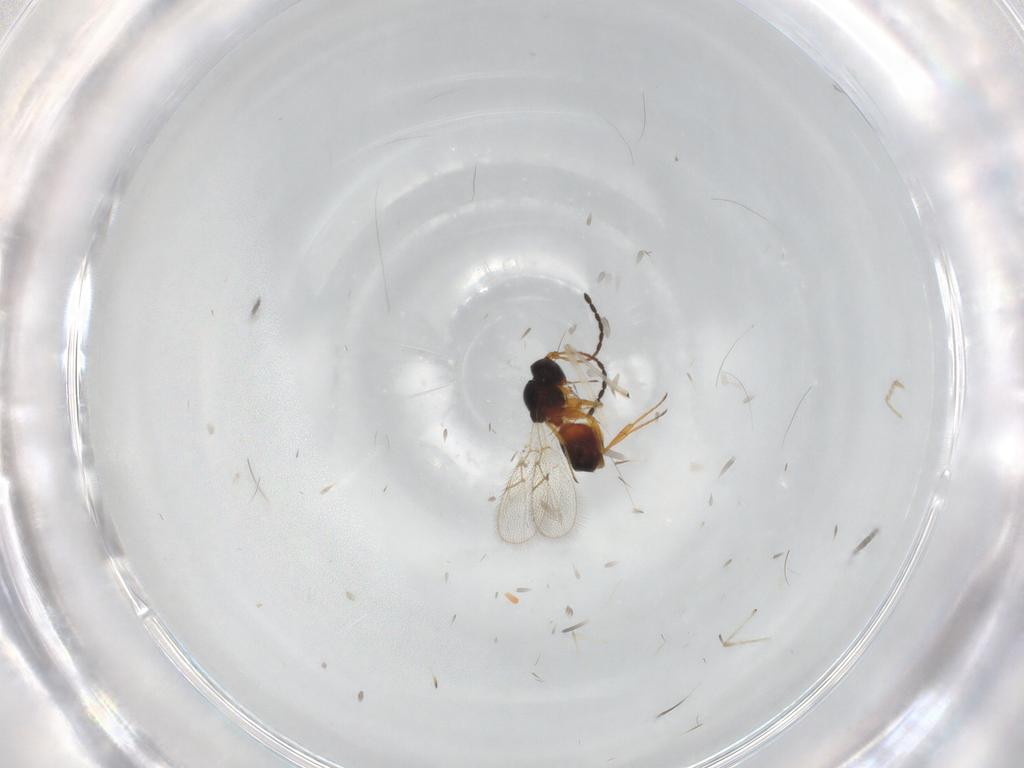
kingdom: Animalia
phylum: Arthropoda
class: Insecta
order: Hymenoptera
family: Figitidae
